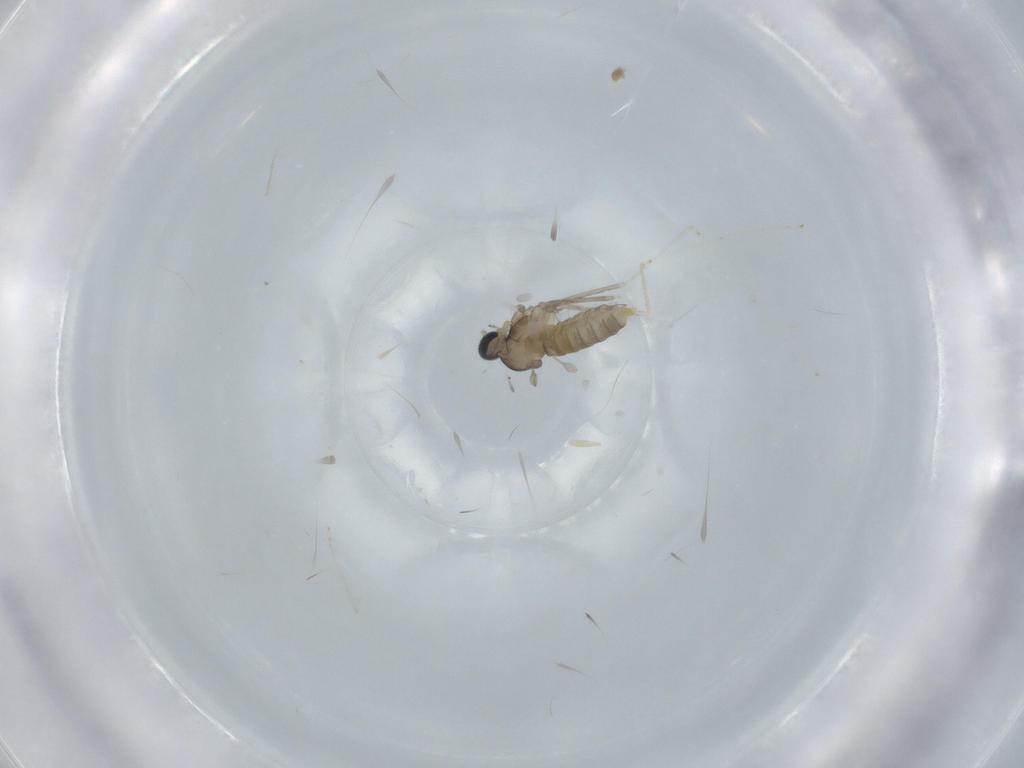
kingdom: Animalia
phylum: Arthropoda
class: Insecta
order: Diptera
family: Cecidomyiidae
